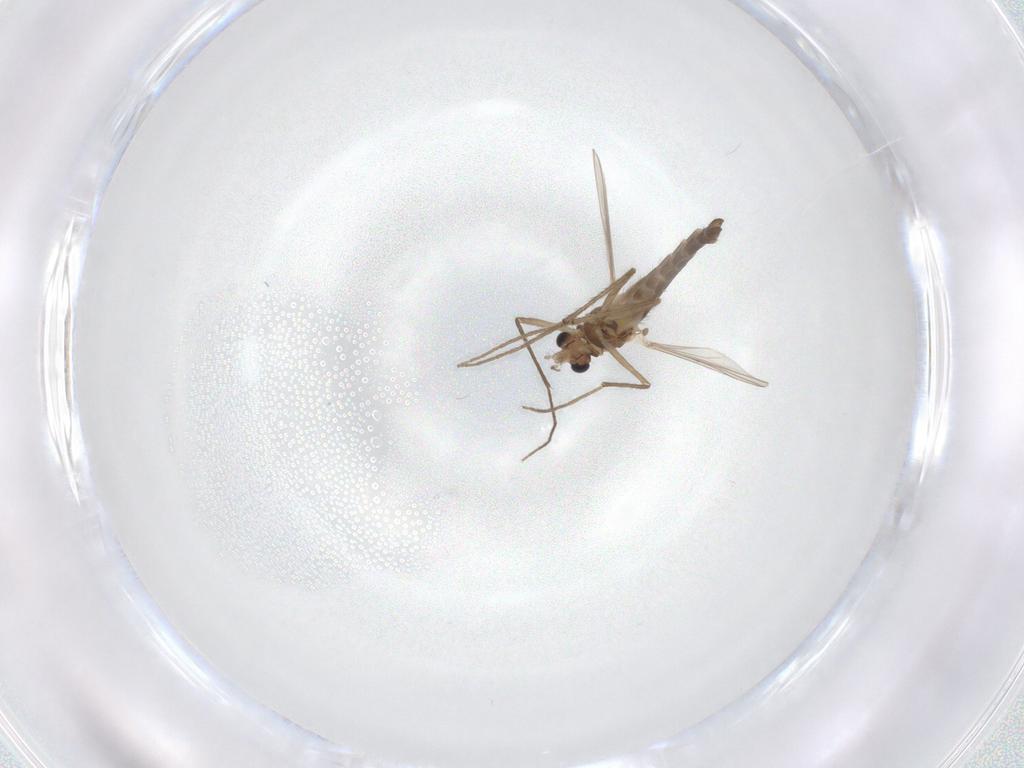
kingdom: Animalia
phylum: Arthropoda
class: Insecta
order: Diptera
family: Chironomidae
